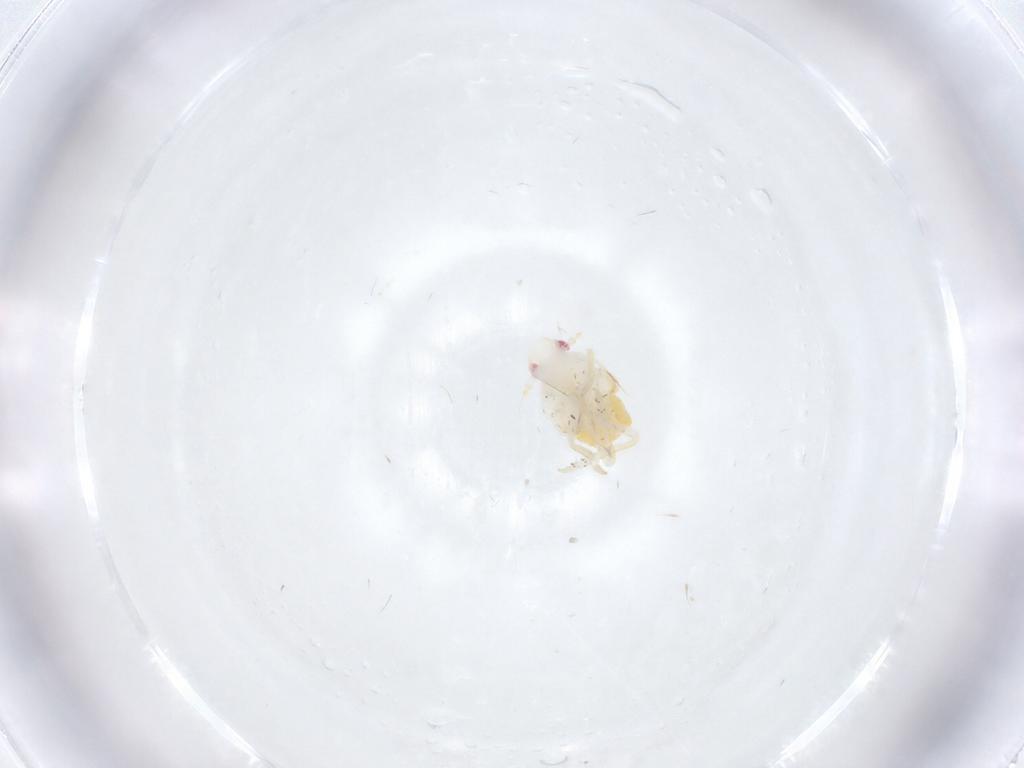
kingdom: Animalia
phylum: Arthropoda
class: Insecta
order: Hemiptera
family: Fulgoroidea_incertae_sedis
